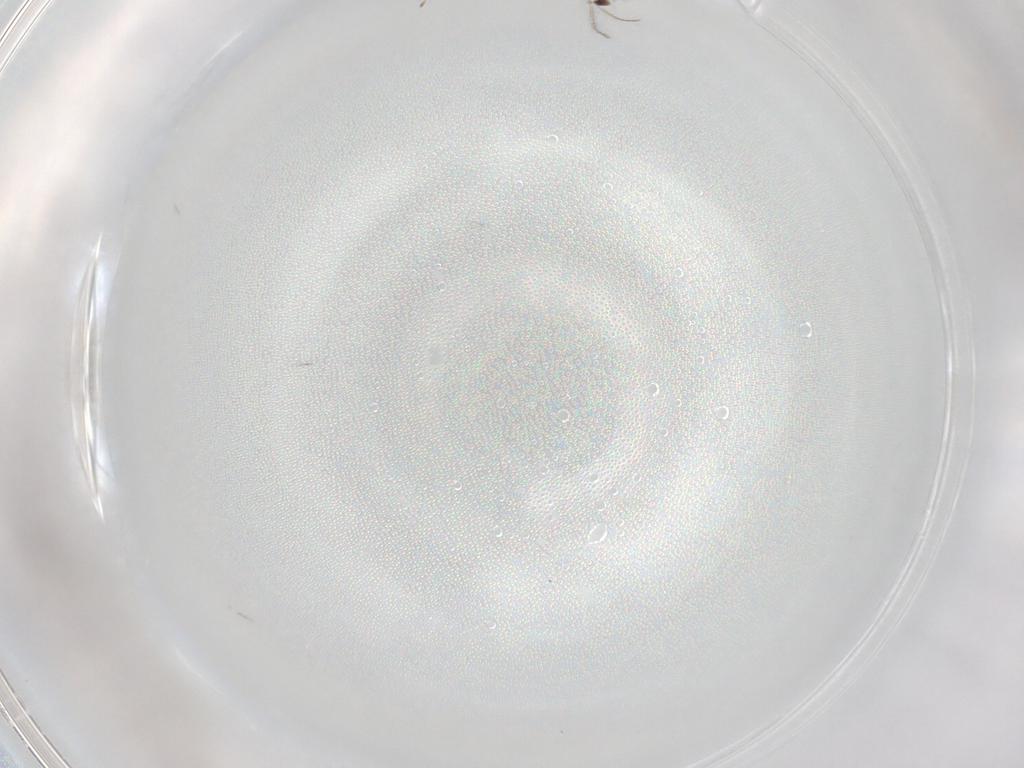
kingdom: Animalia
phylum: Arthropoda
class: Insecta
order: Hymenoptera
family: Mymaridae
